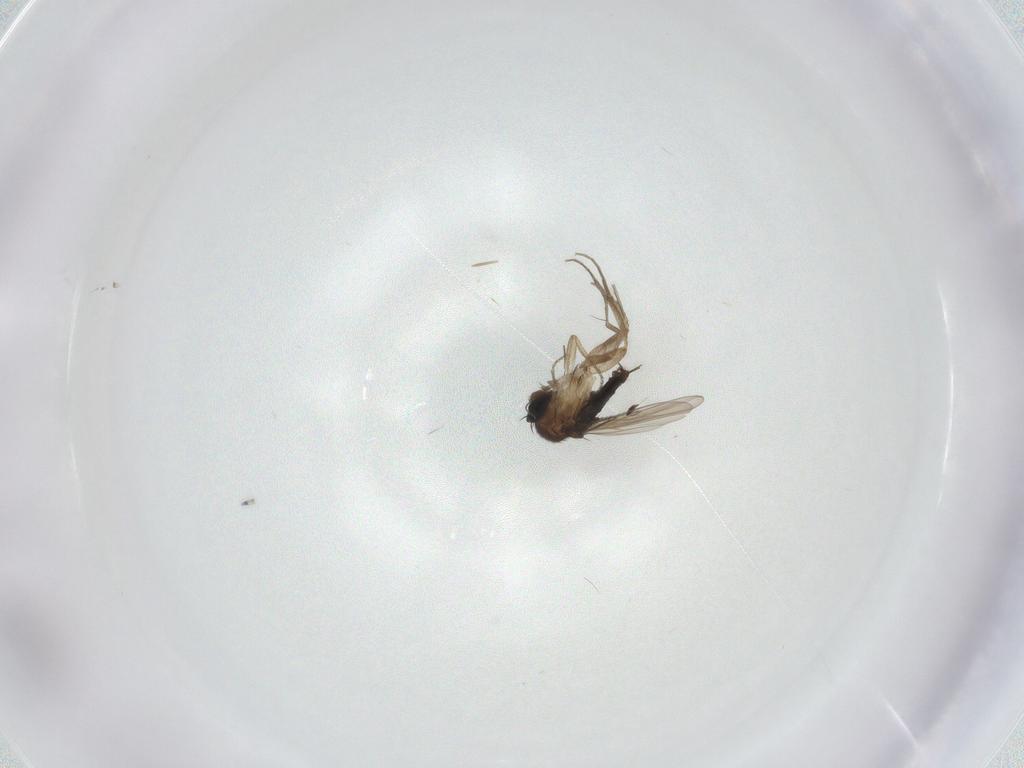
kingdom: Animalia
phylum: Arthropoda
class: Insecta
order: Diptera
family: Phoridae
